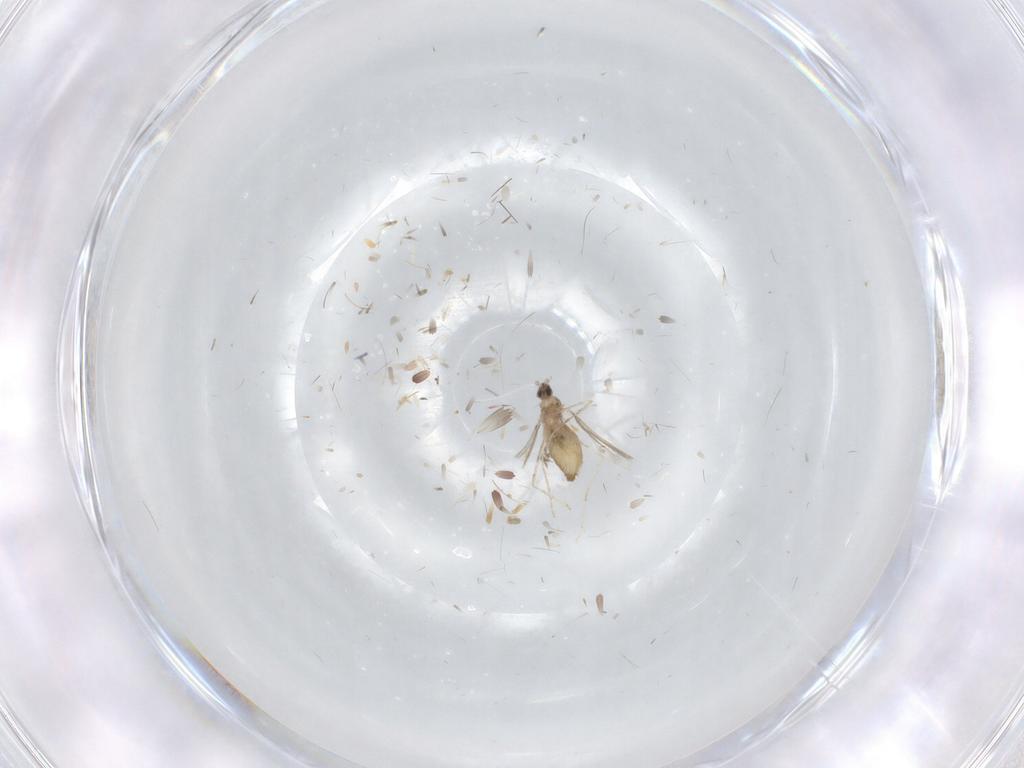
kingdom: Animalia
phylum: Arthropoda
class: Insecta
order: Diptera
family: Cecidomyiidae
